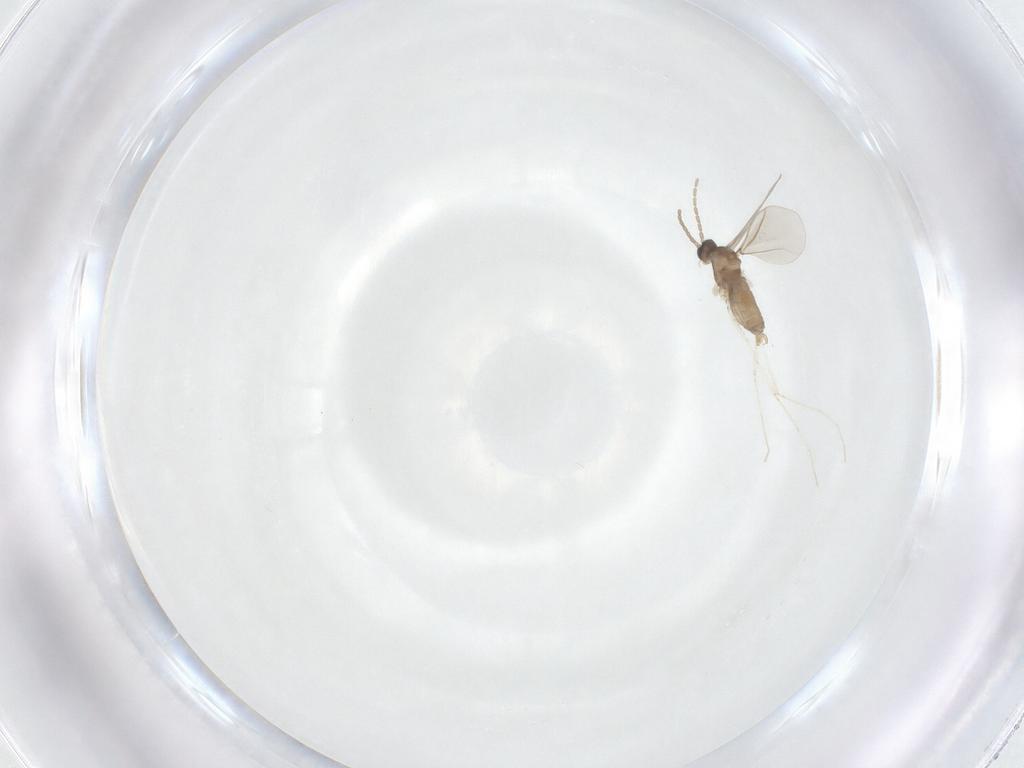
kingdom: Animalia
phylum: Arthropoda
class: Insecta
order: Diptera
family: Cecidomyiidae
